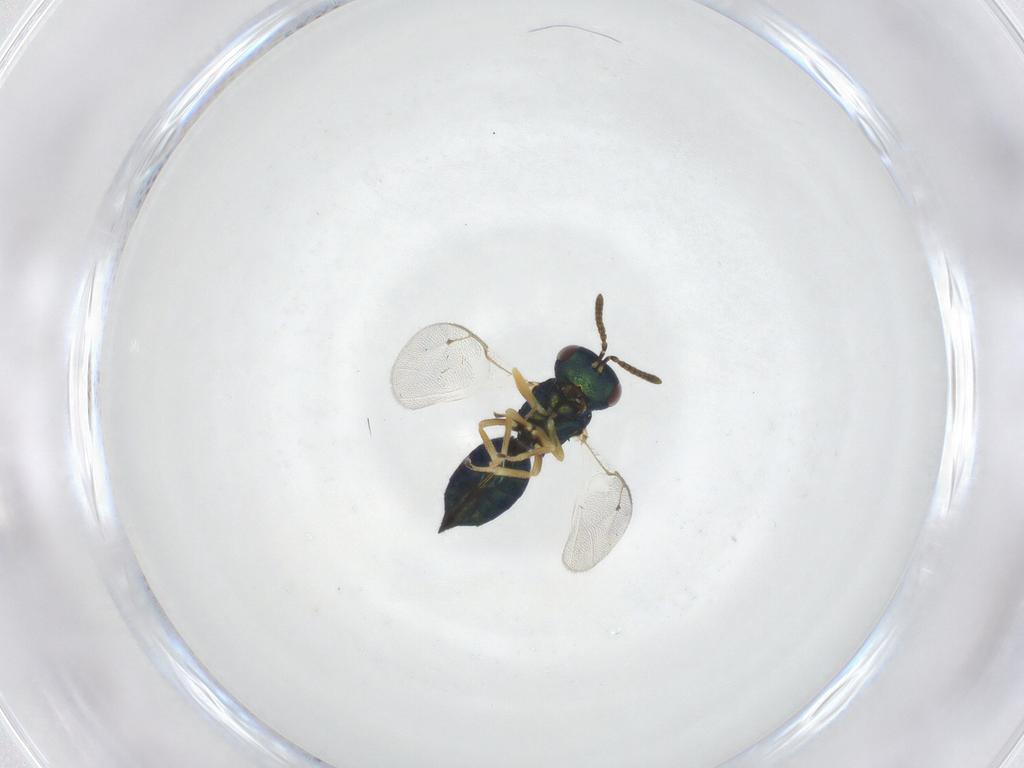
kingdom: Animalia
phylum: Arthropoda
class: Insecta
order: Hymenoptera
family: Pteromalidae
